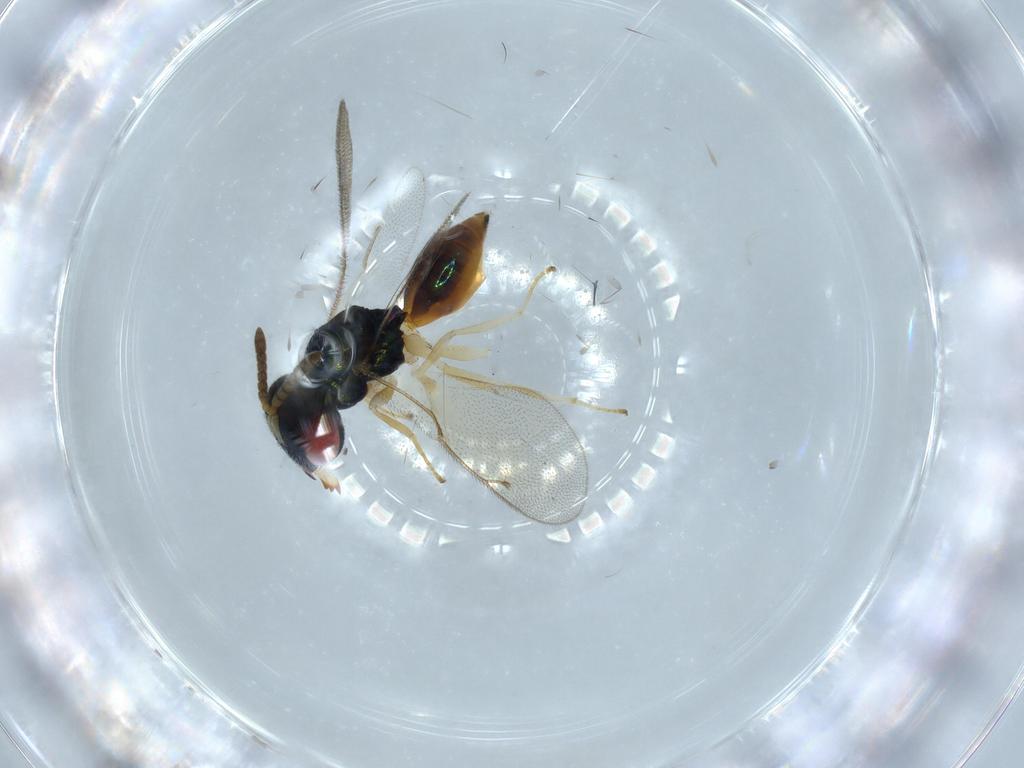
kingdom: Animalia
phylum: Arthropoda
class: Insecta
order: Hymenoptera
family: Pteromalidae
